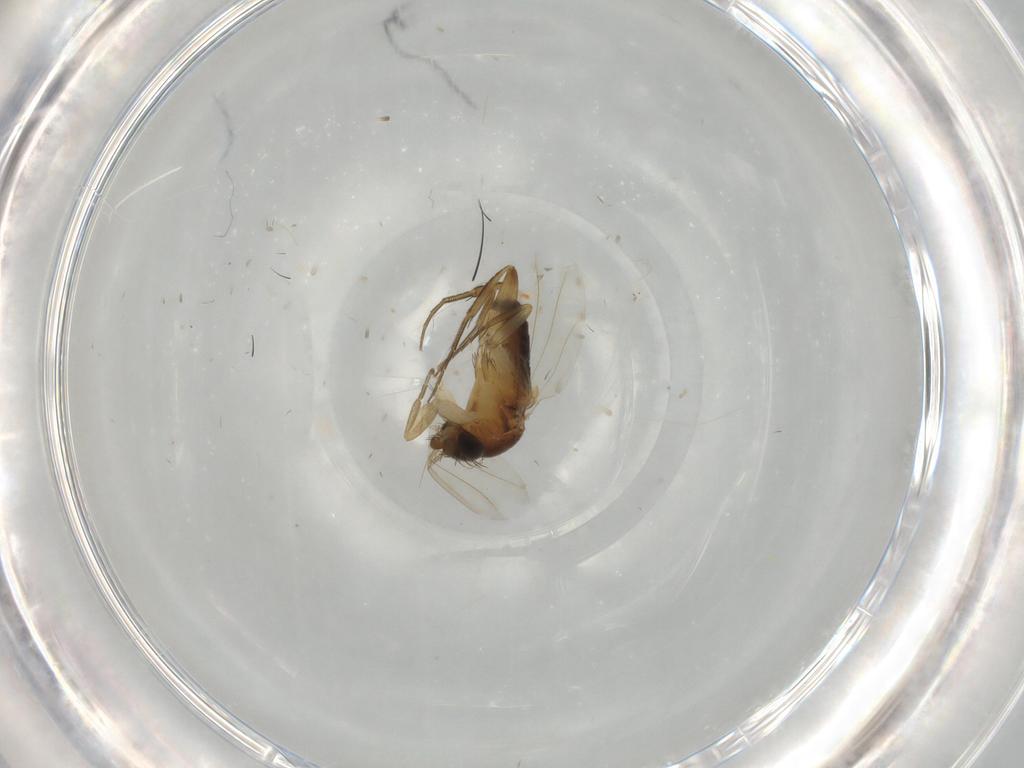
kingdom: Animalia
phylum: Arthropoda
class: Insecta
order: Diptera
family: Phoridae
